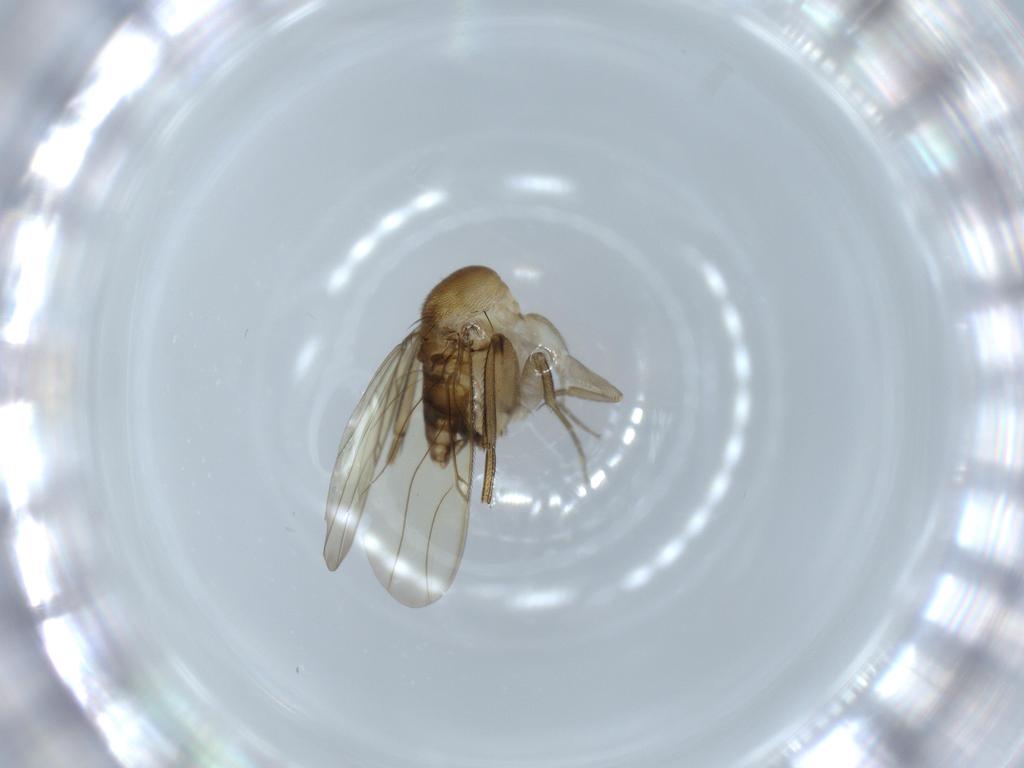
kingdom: Animalia
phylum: Arthropoda
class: Insecta
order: Diptera
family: Phoridae
